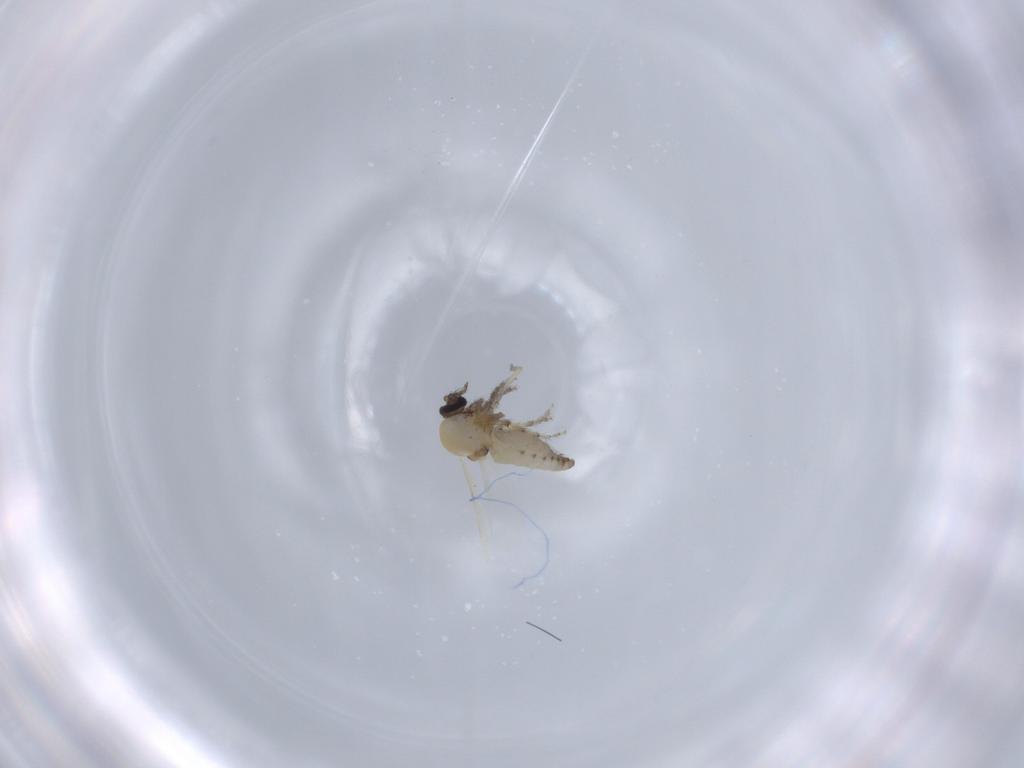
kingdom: Animalia
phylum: Arthropoda
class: Insecta
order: Diptera
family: Ceratopogonidae
